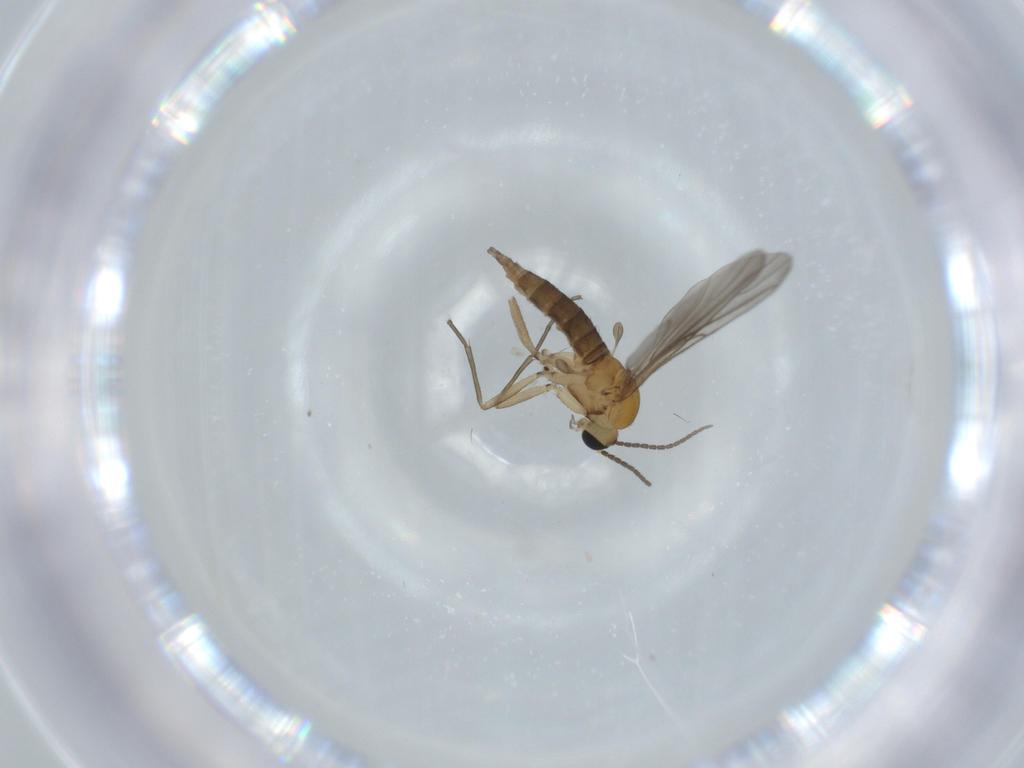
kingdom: Animalia
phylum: Arthropoda
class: Insecta
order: Diptera
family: Sciaridae
